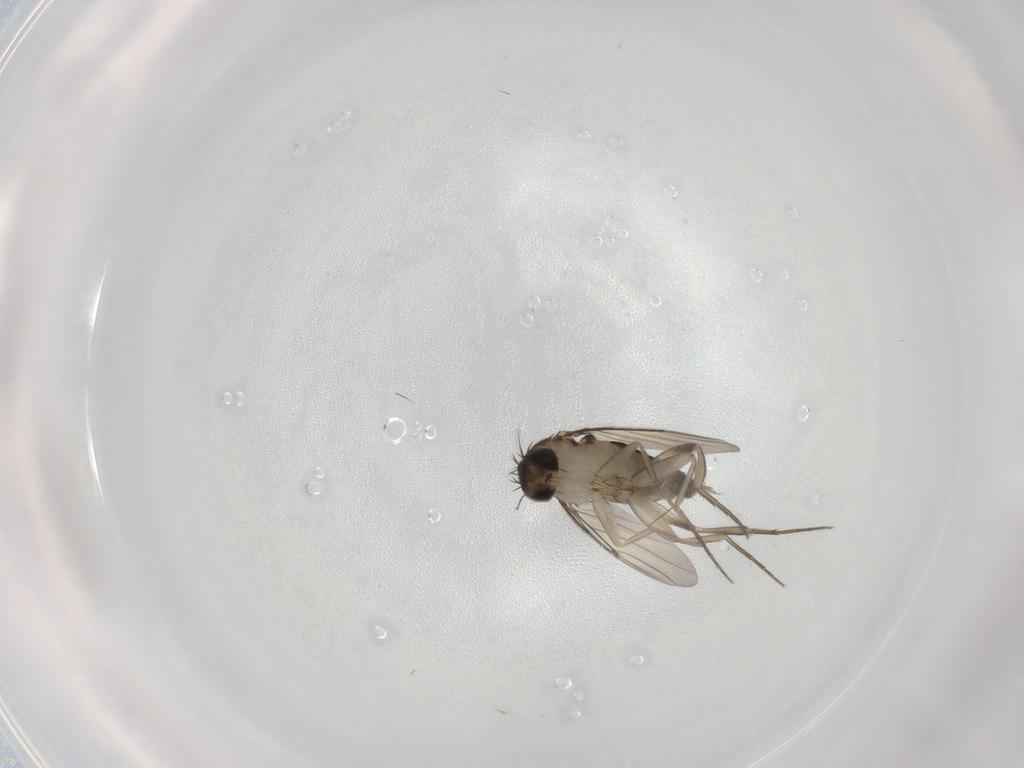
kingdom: Animalia
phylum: Arthropoda
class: Insecta
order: Diptera
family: Phoridae
